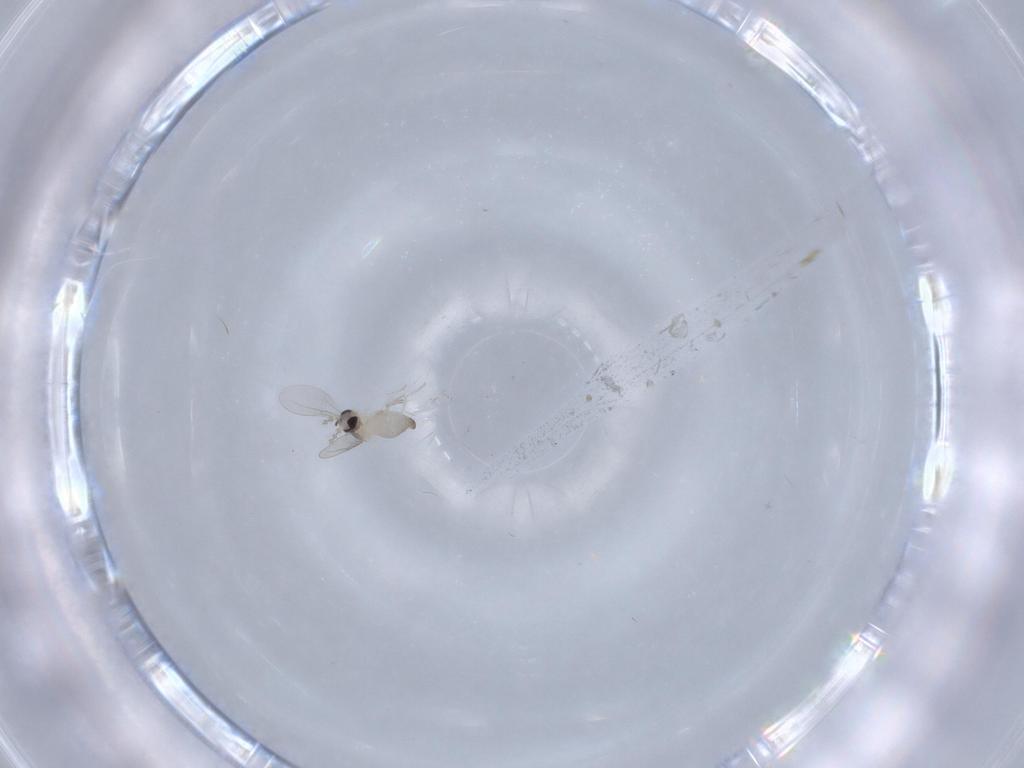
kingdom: Animalia
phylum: Arthropoda
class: Insecta
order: Diptera
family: Cecidomyiidae
